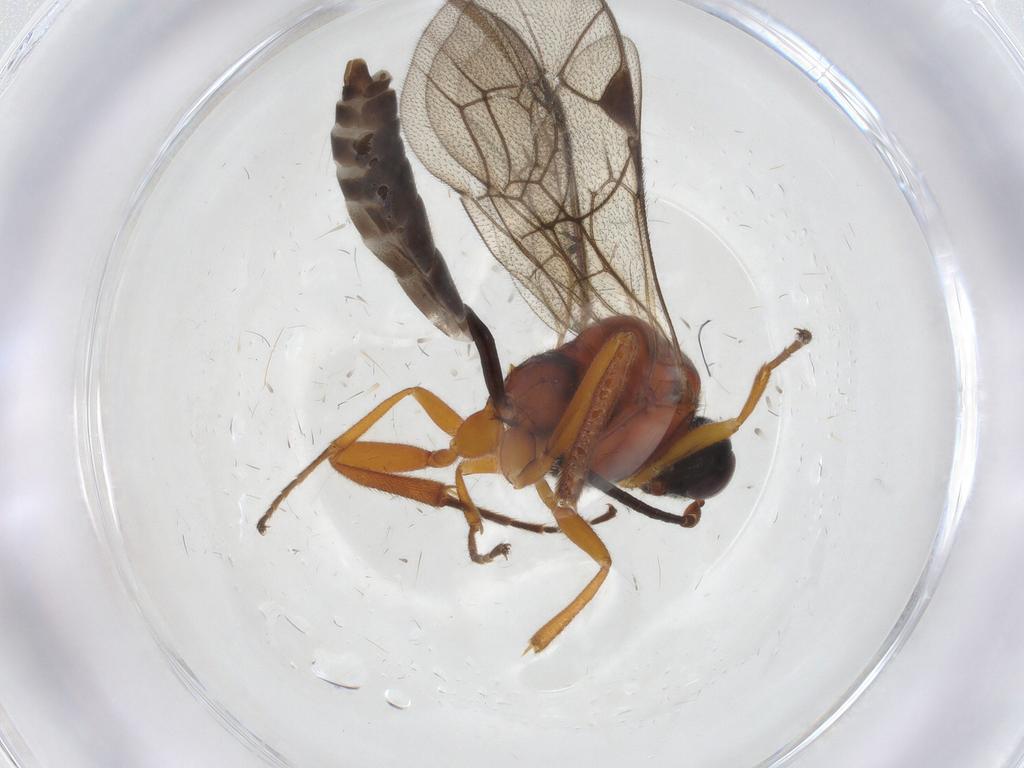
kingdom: Animalia
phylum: Arthropoda
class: Insecta
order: Hymenoptera
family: Ichneumonidae
